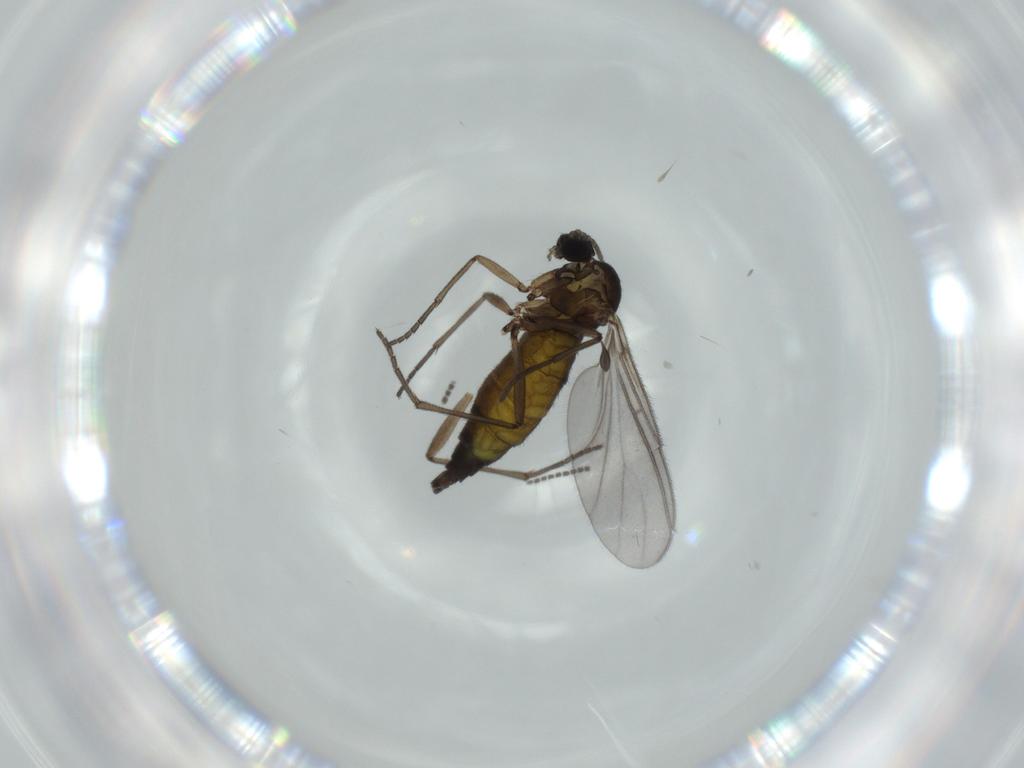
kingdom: Animalia
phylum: Arthropoda
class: Insecta
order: Diptera
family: Sciaridae
